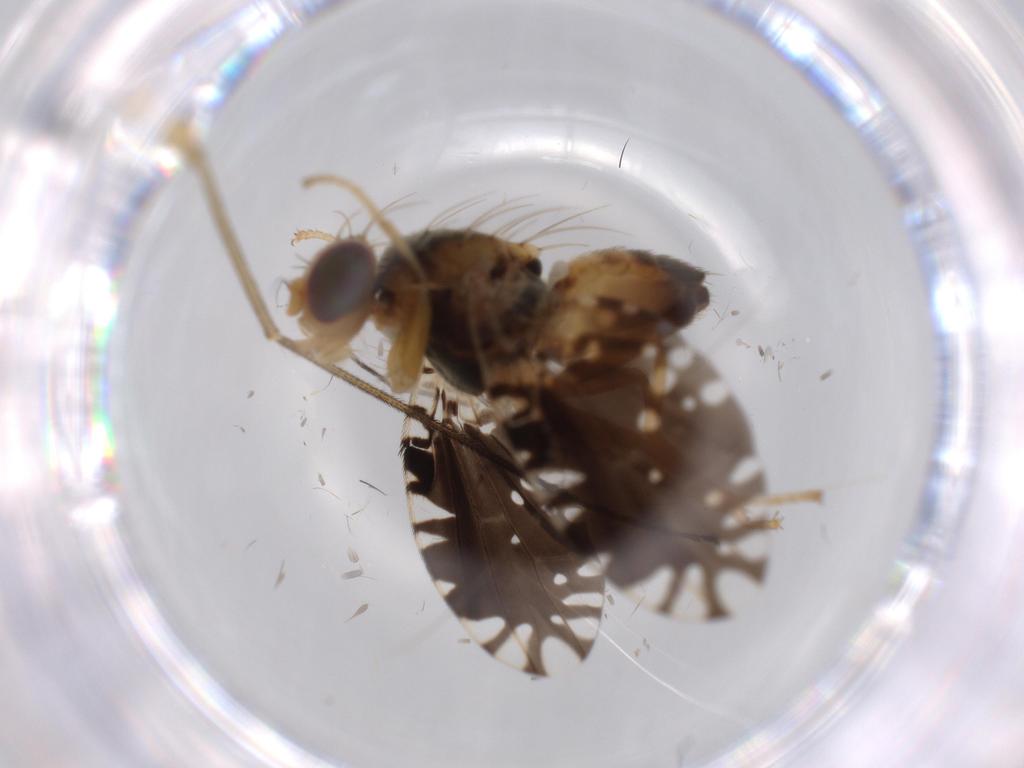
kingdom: Animalia
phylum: Arthropoda
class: Insecta
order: Diptera
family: Tephritidae
